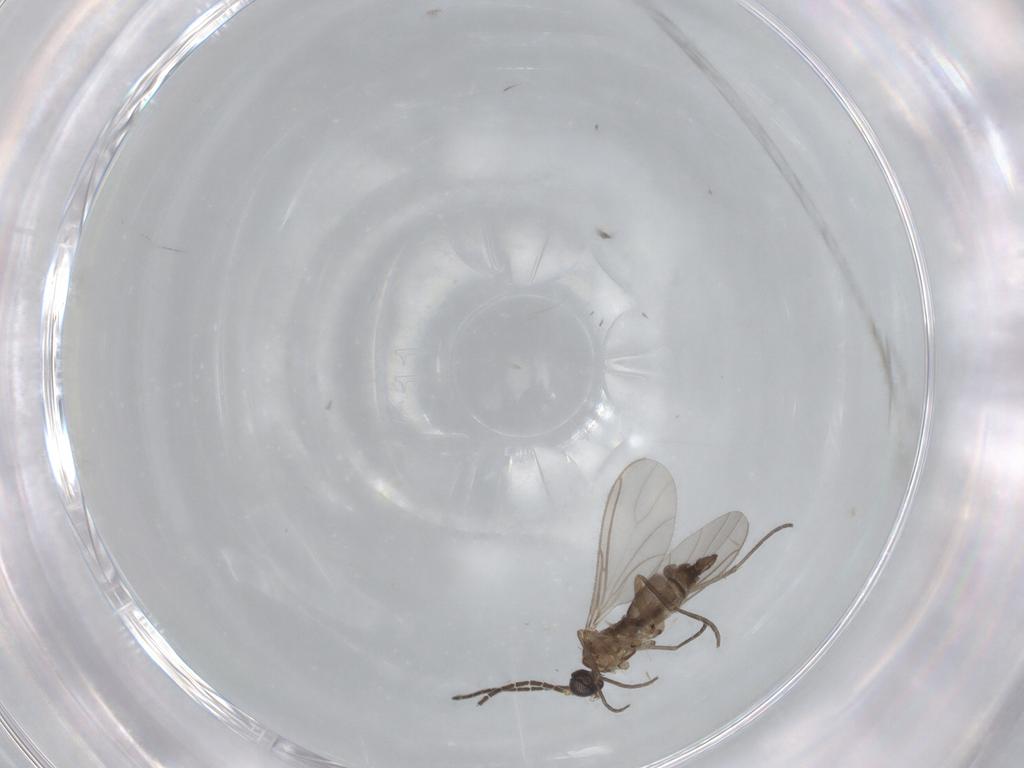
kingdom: Animalia
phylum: Arthropoda
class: Insecta
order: Diptera
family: Sciaridae
